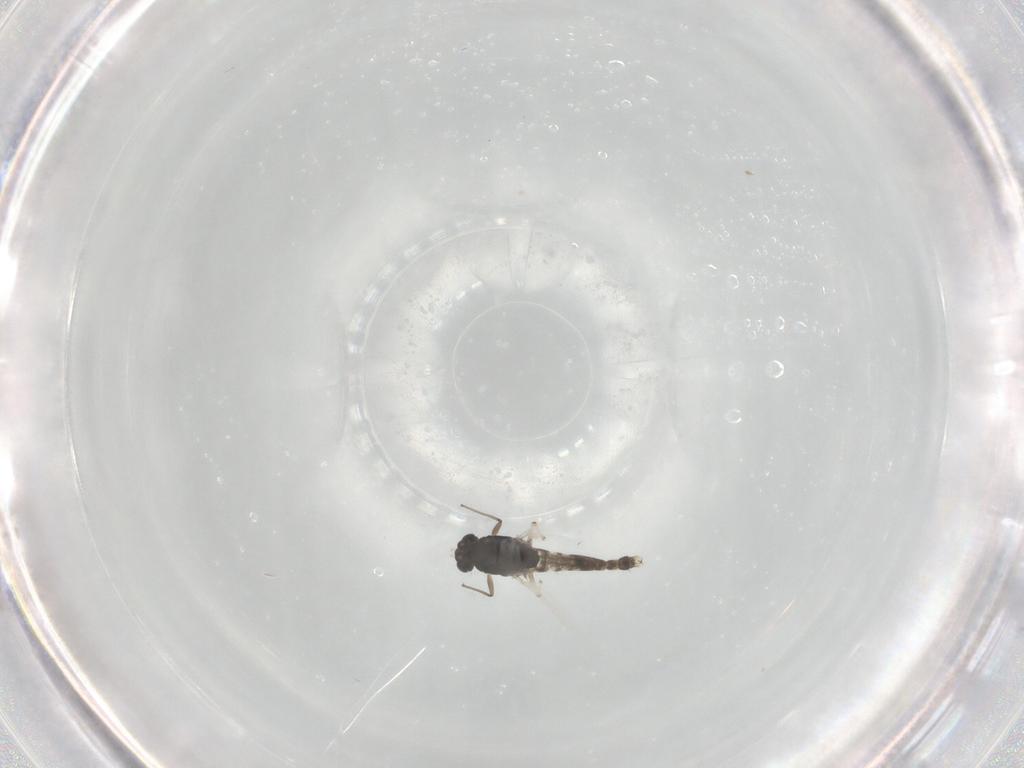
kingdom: Animalia
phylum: Arthropoda
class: Insecta
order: Diptera
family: Chironomidae
